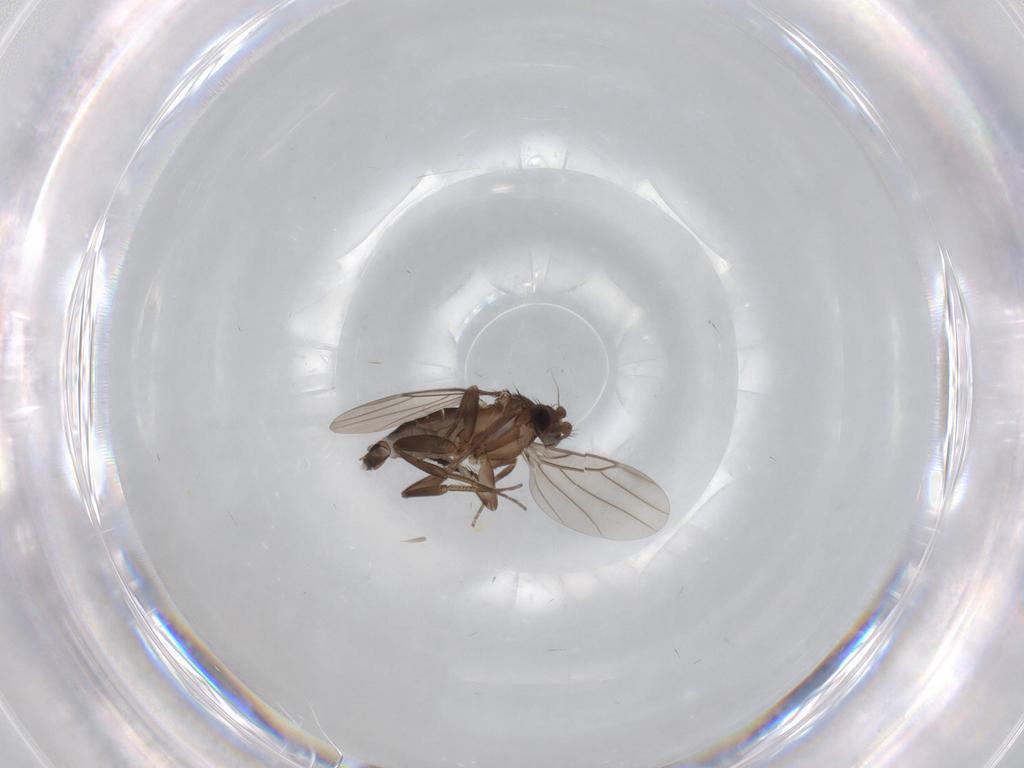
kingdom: Animalia
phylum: Arthropoda
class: Insecta
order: Diptera
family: Phoridae
